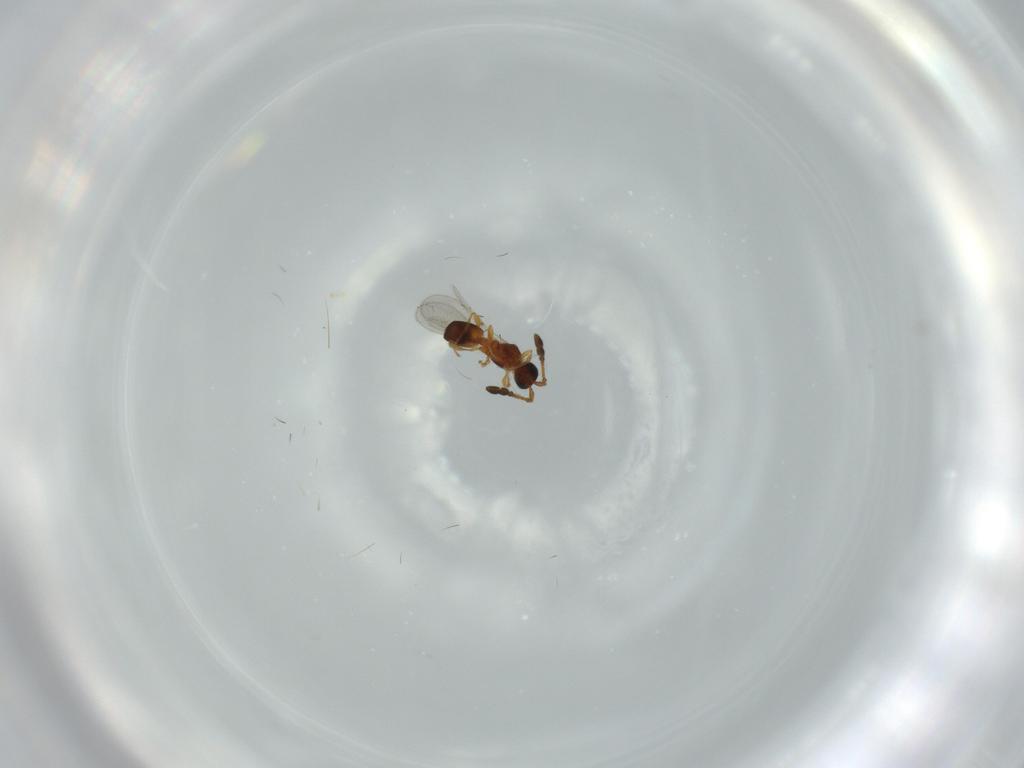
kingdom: Animalia
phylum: Arthropoda
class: Insecta
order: Hymenoptera
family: Diapriidae
